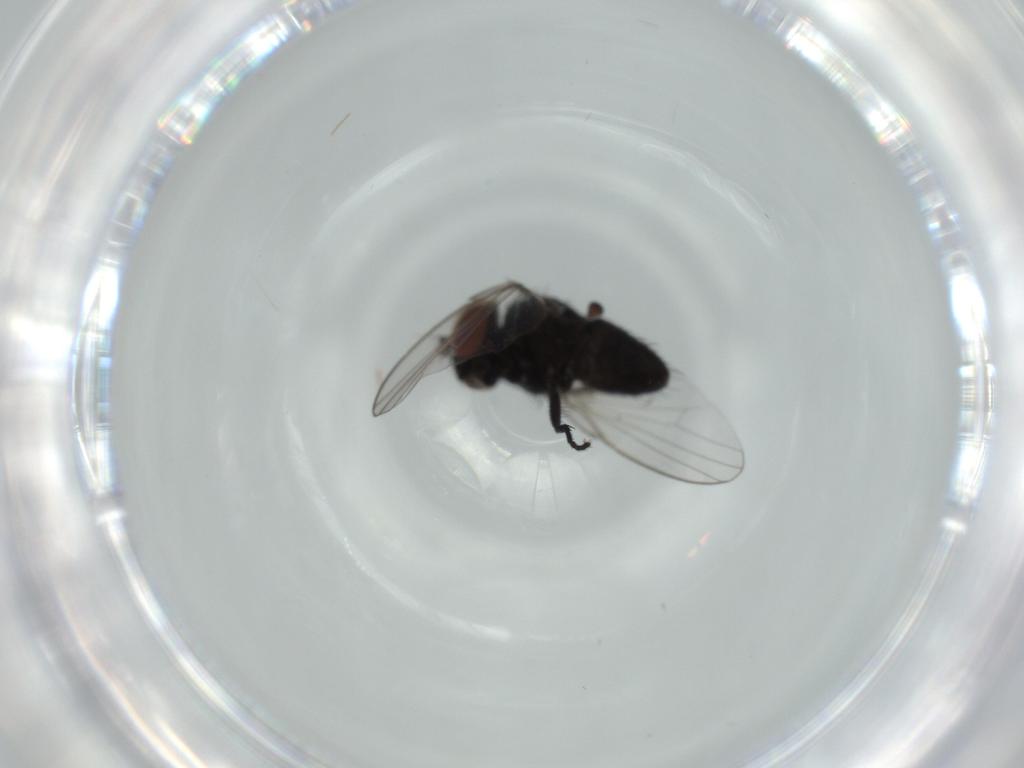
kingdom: Animalia
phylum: Arthropoda
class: Insecta
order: Diptera
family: Milichiidae
